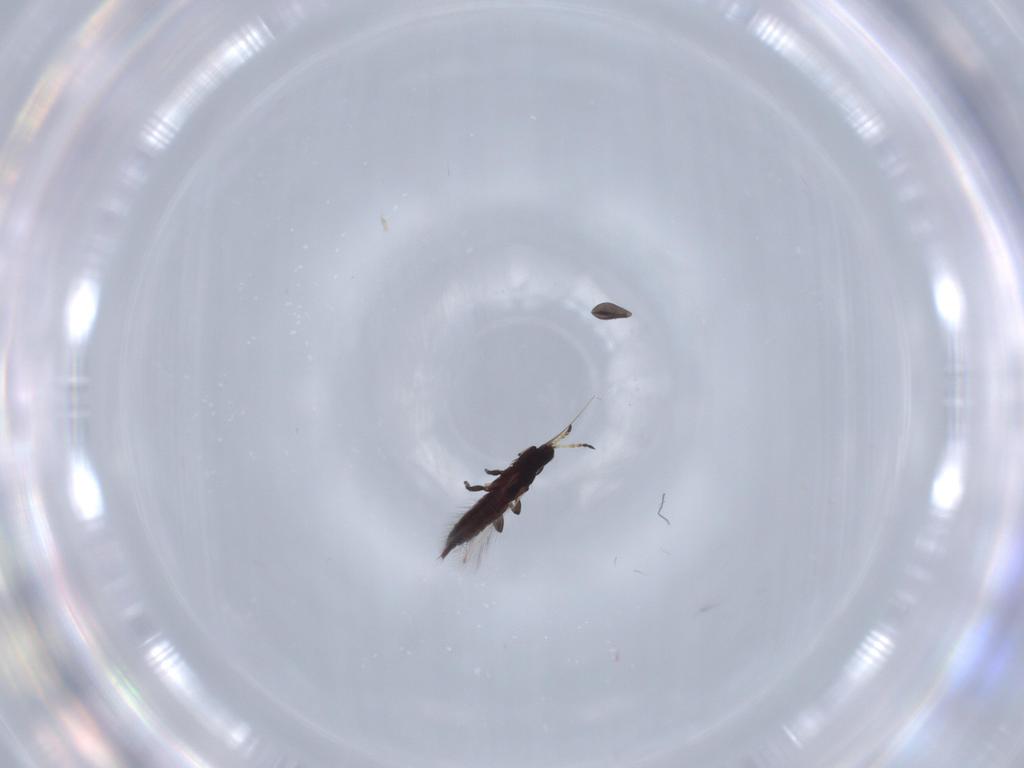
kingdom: Animalia
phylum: Arthropoda
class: Insecta
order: Thysanoptera
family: Phlaeothripidae
